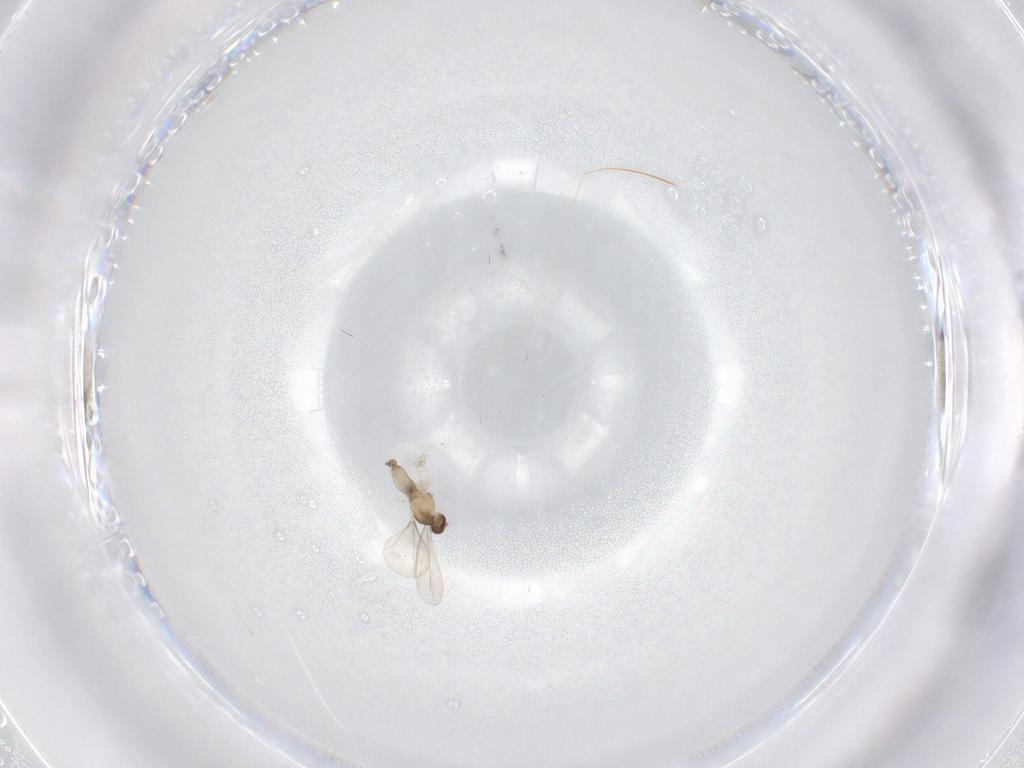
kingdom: Animalia
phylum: Arthropoda
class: Insecta
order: Diptera
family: Cecidomyiidae
